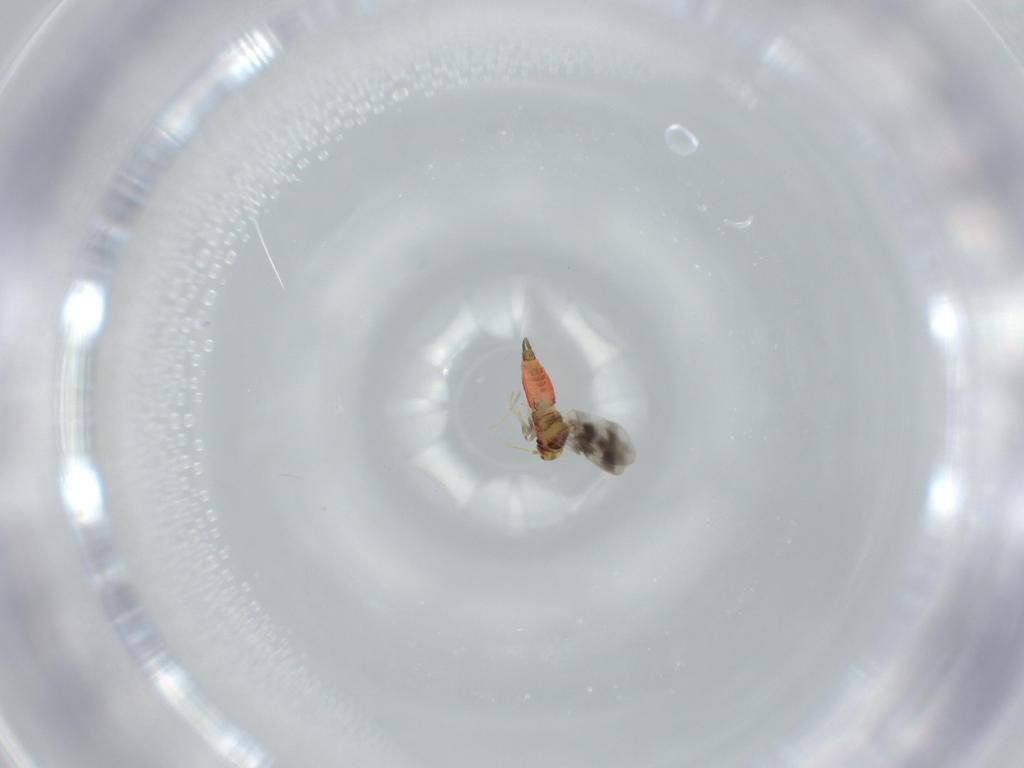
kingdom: Animalia
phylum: Arthropoda
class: Insecta
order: Hemiptera
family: Aleyrodidae
